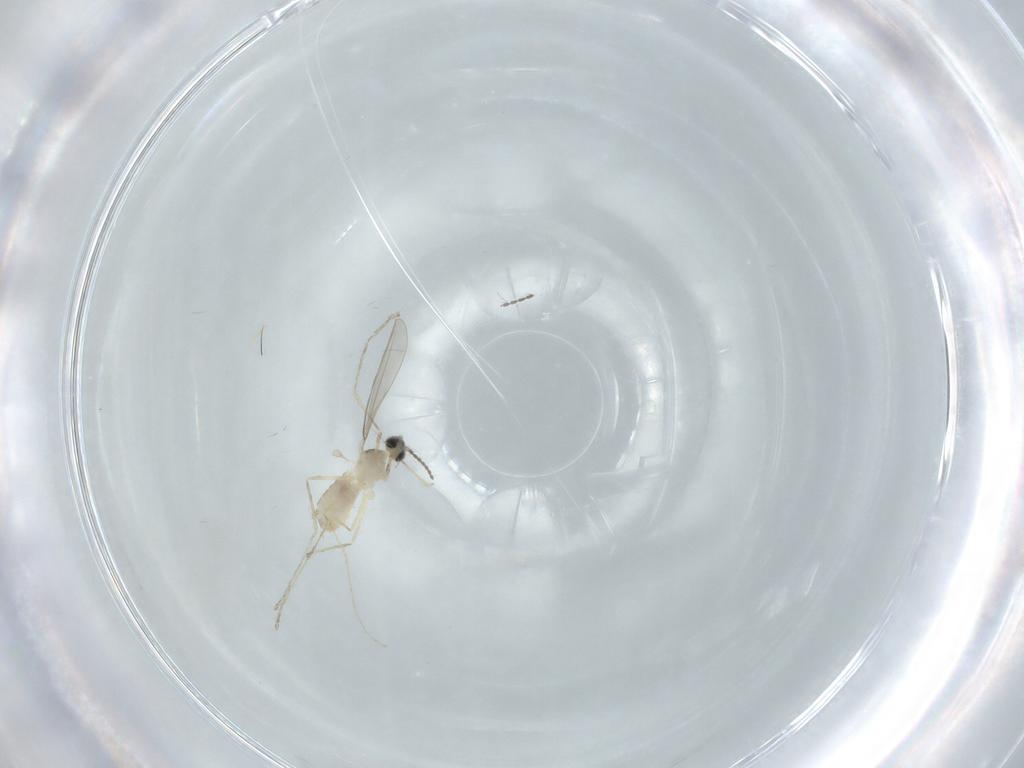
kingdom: Animalia
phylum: Arthropoda
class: Insecta
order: Diptera
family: Cecidomyiidae
